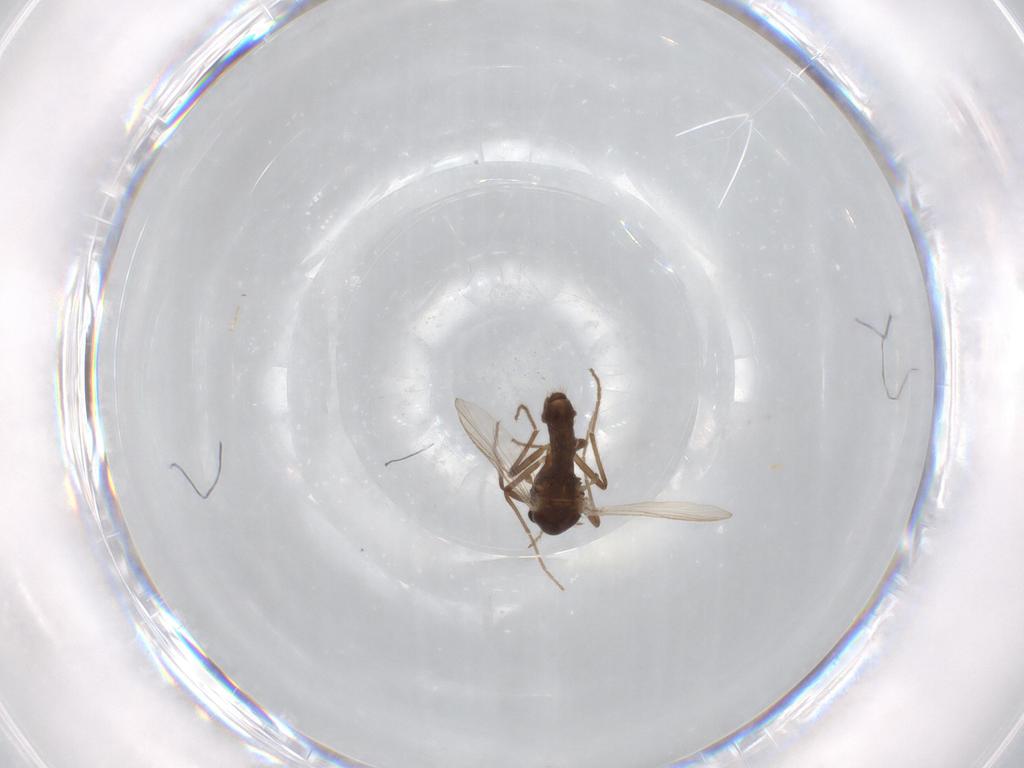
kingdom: Animalia
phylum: Arthropoda
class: Insecta
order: Diptera
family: Chironomidae
